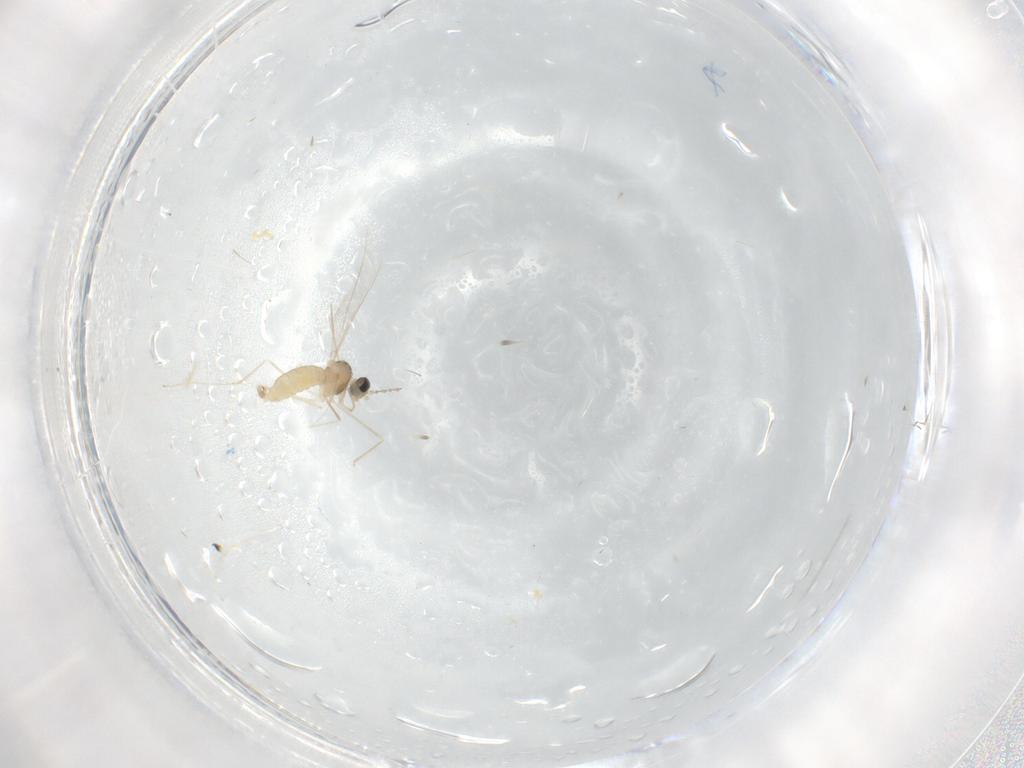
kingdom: Animalia
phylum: Arthropoda
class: Insecta
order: Diptera
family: Cecidomyiidae
